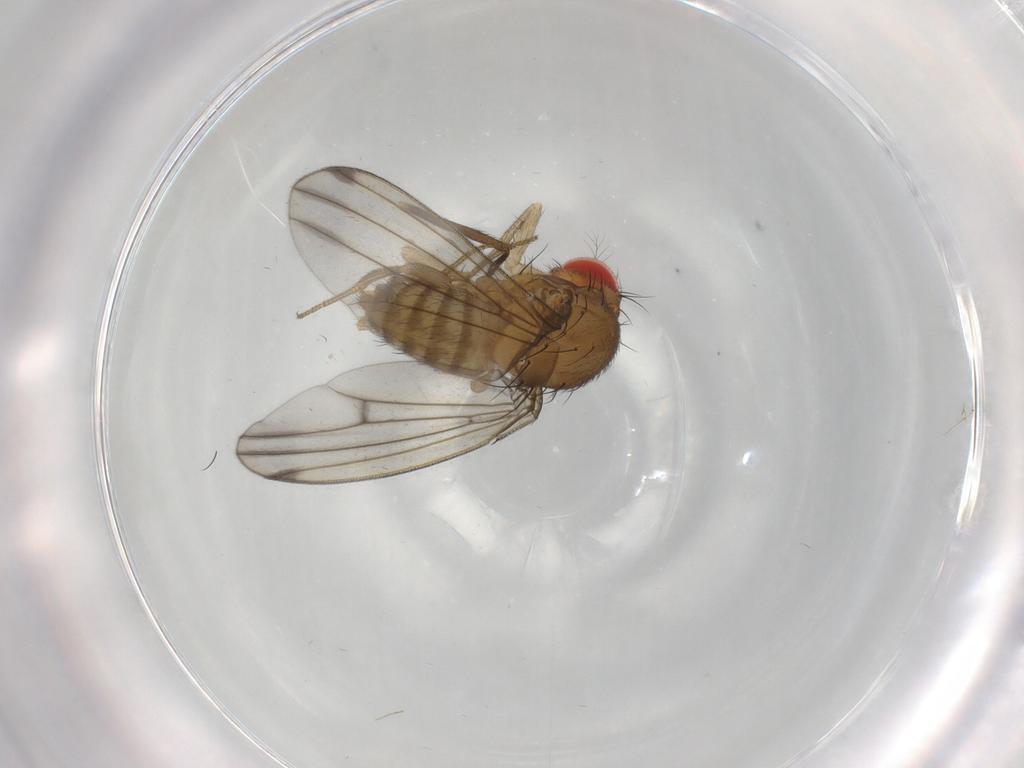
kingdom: Animalia
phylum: Arthropoda
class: Insecta
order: Diptera
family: Drosophilidae
